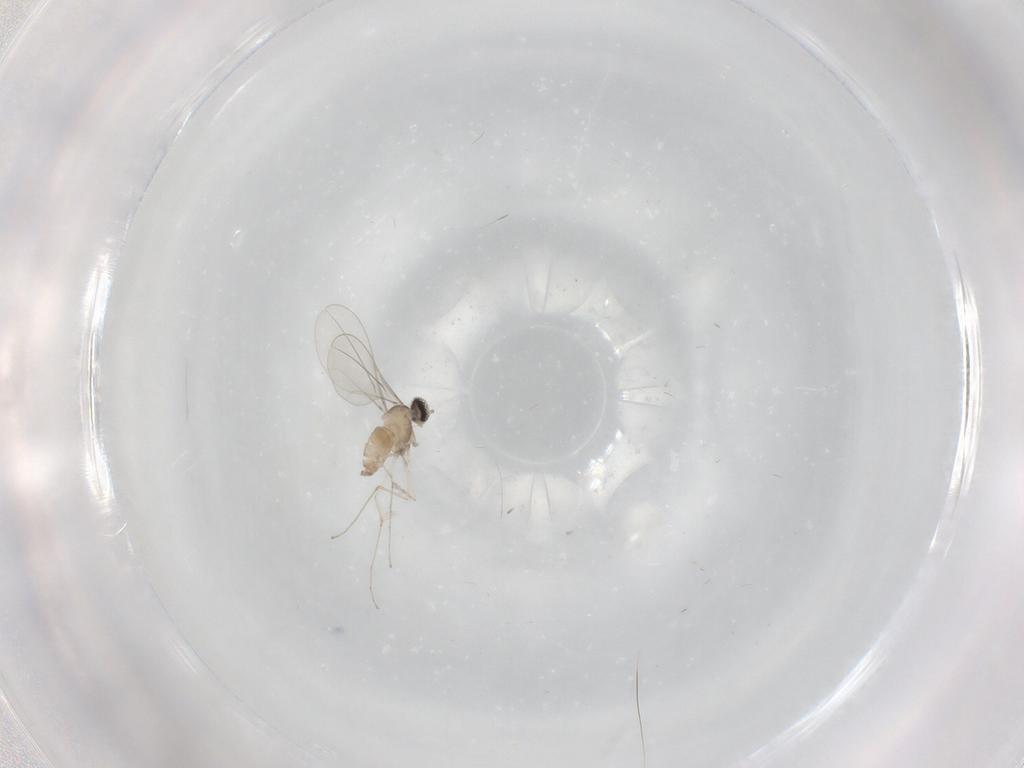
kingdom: Animalia
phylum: Arthropoda
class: Insecta
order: Diptera
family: Cecidomyiidae
